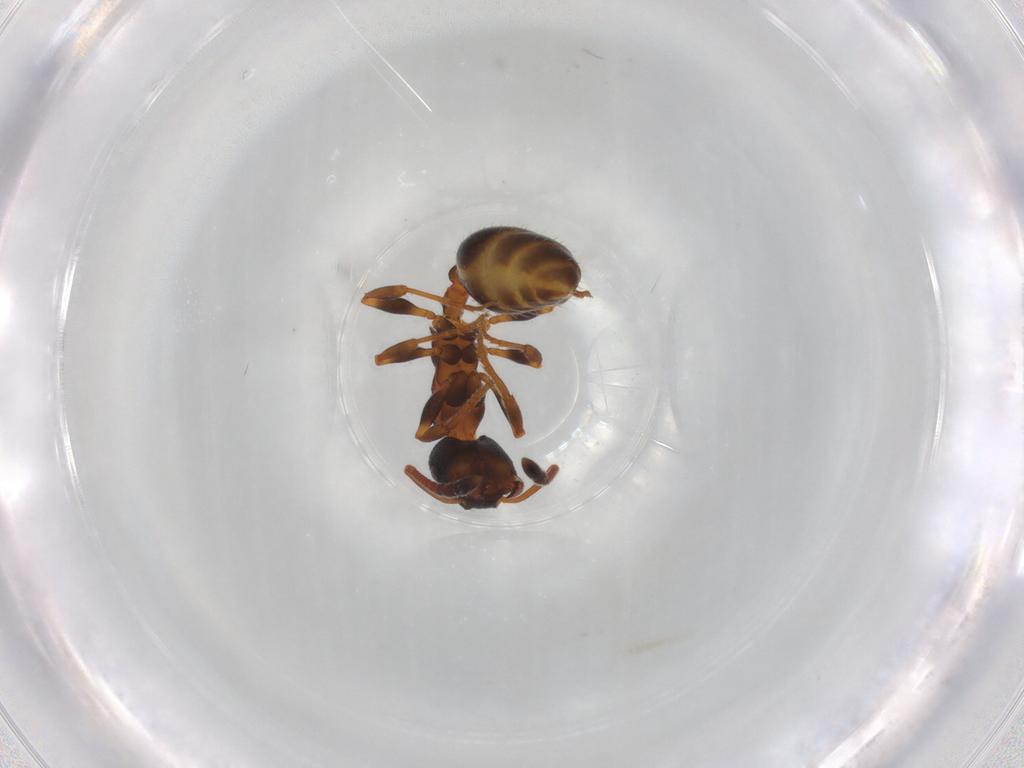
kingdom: Animalia
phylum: Arthropoda
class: Insecta
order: Hymenoptera
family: Formicidae
